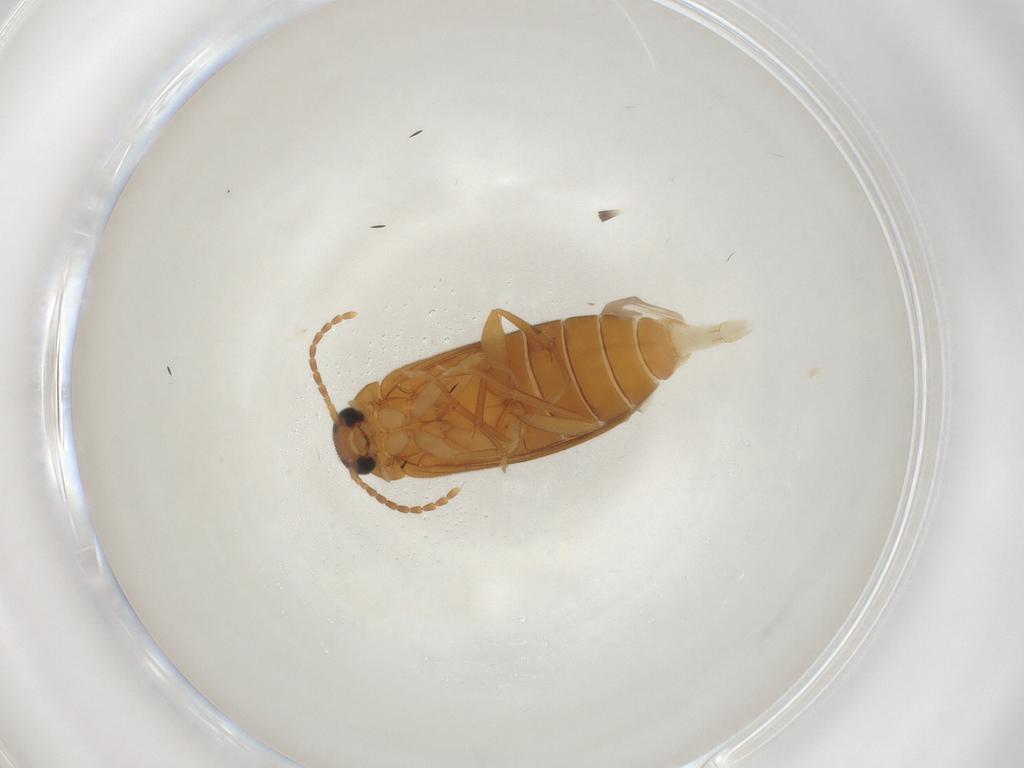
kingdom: Animalia
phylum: Arthropoda
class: Insecta
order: Coleoptera
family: Scraptiidae
